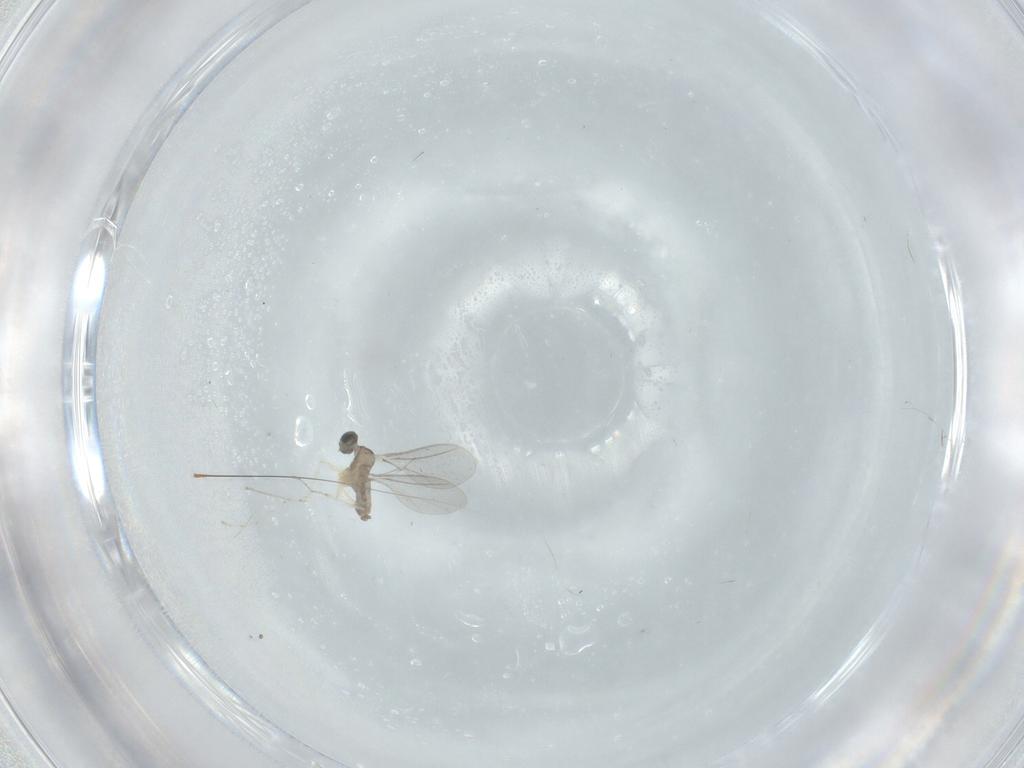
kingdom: Animalia
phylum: Arthropoda
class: Insecta
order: Diptera
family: Cecidomyiidae
